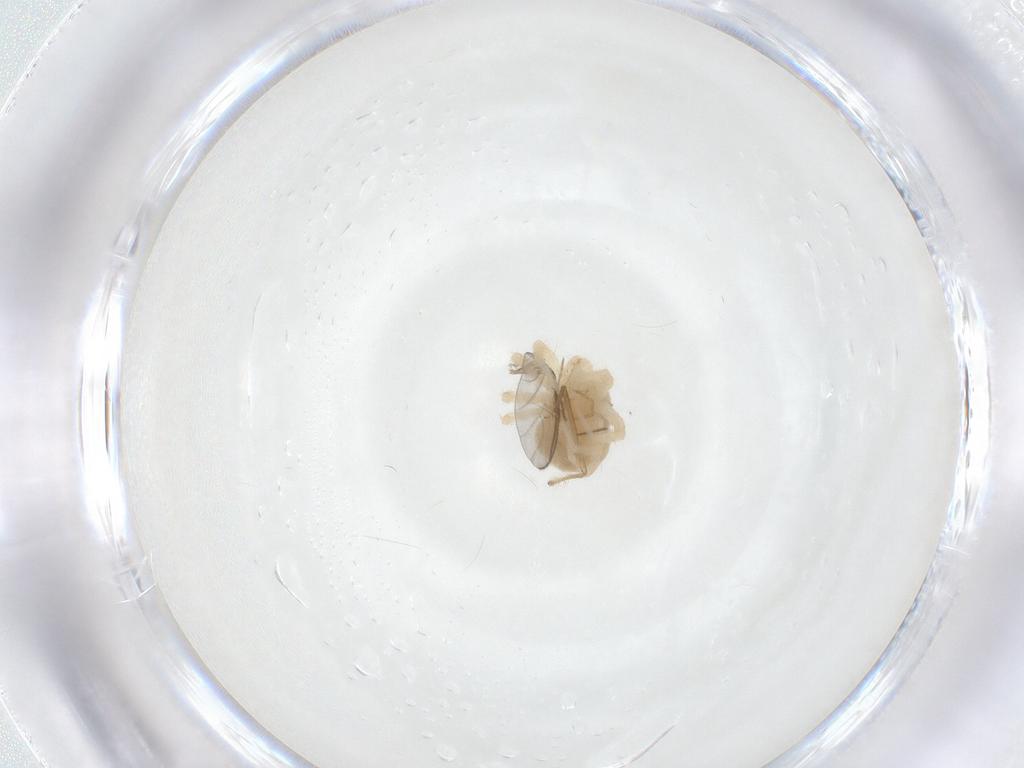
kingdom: Animalia
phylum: Arthropoda
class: Arachnida
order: Trombidiformes
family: Anystidae
